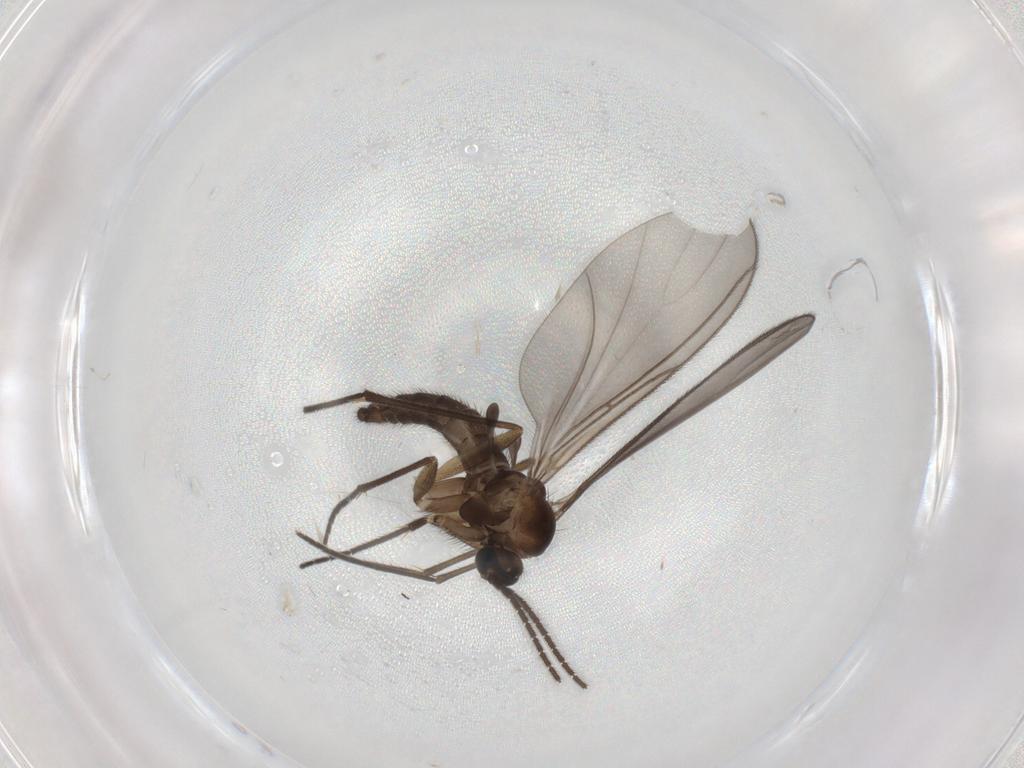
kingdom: Animalia
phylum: Arthropoda
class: Insecta
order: Diptera
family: Sciaridae
